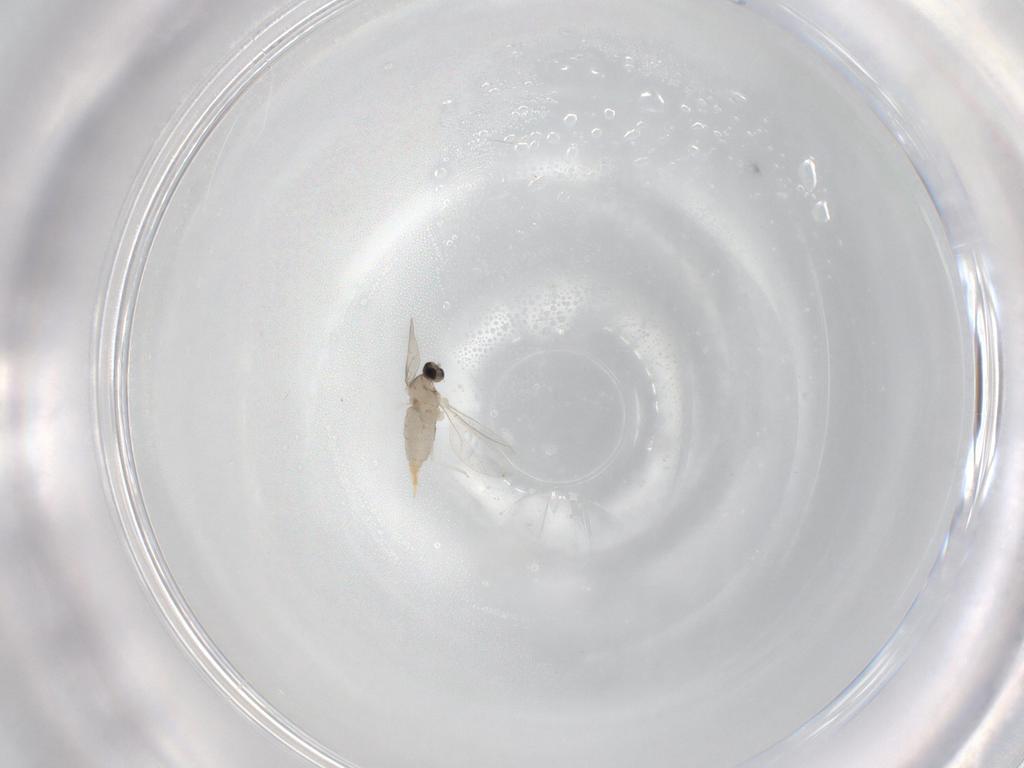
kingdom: Animalia
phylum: Arthropoda
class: Insecta
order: Diptera
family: Cecidomyiidae
